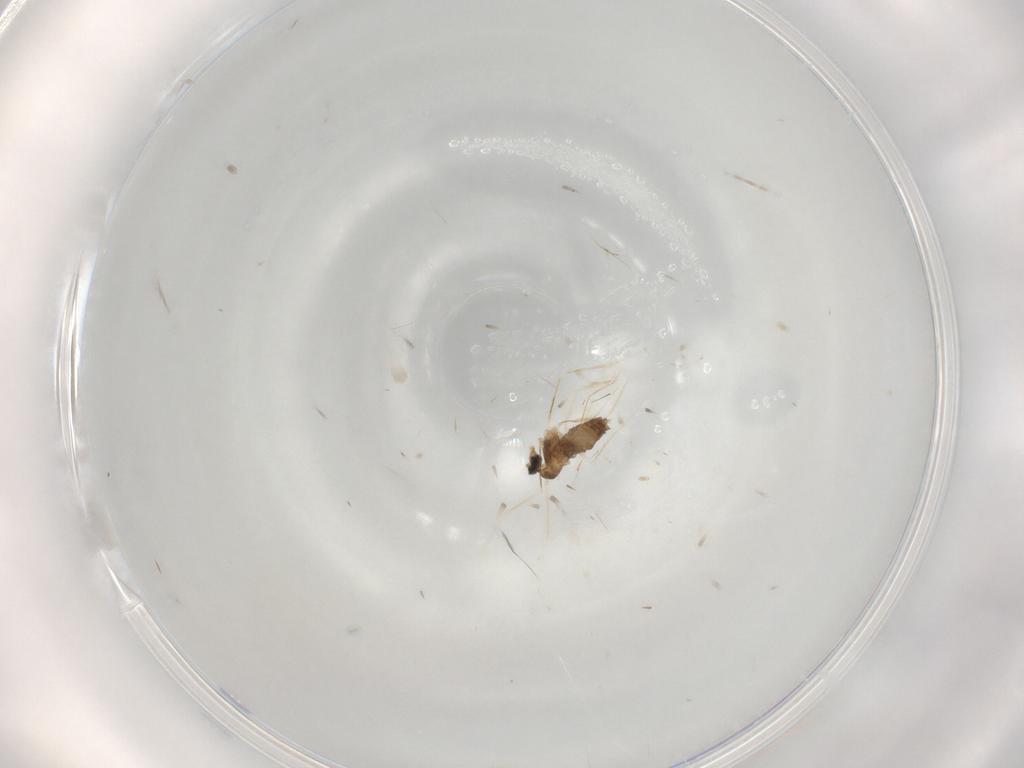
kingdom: Animalia
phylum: Arthropoda
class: Insecta
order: Diptera
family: Cecidomyiidae
